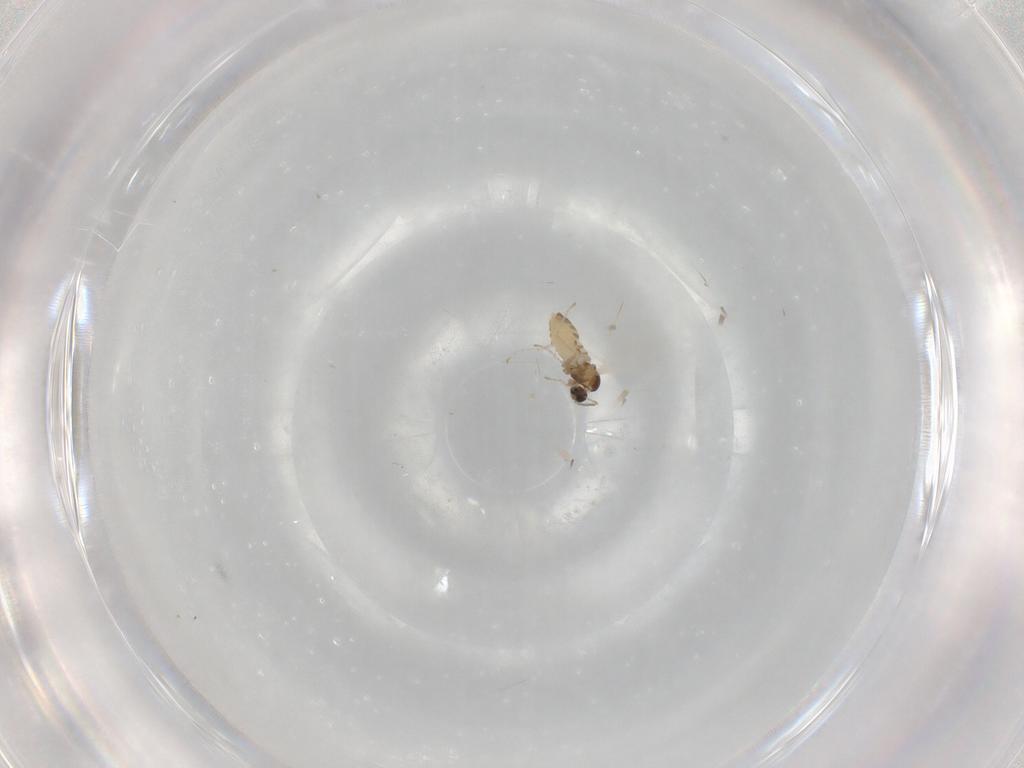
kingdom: Animalia
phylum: Arthropoda
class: Insecta
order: Diptera
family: Cecidomyiidae
